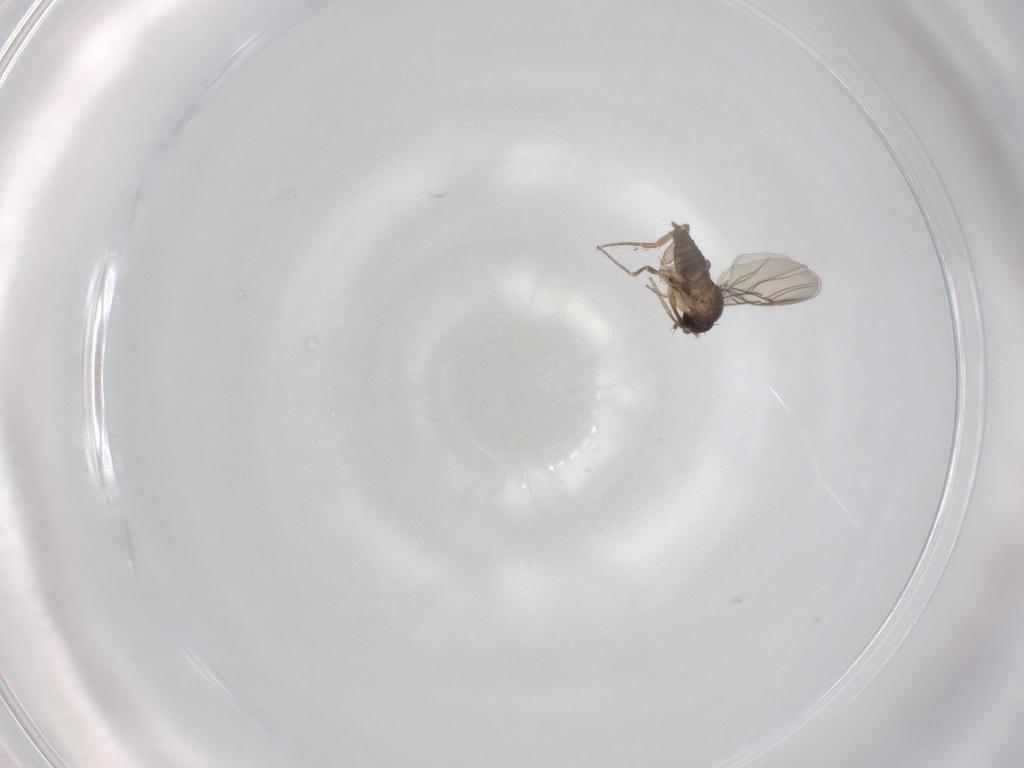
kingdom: Animalia
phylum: Arthropoda
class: Insecta
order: Diptera
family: Phoridae
